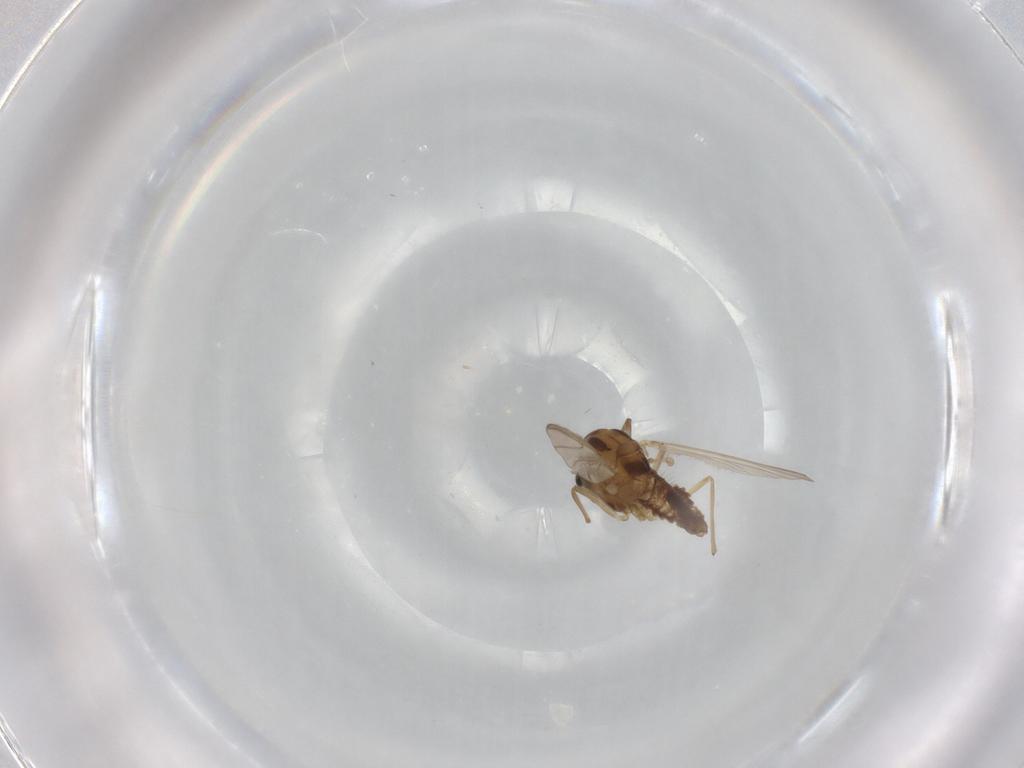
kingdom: Animalia
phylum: Arthropoda
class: Insecta
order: Diptera
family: Chironomidae
